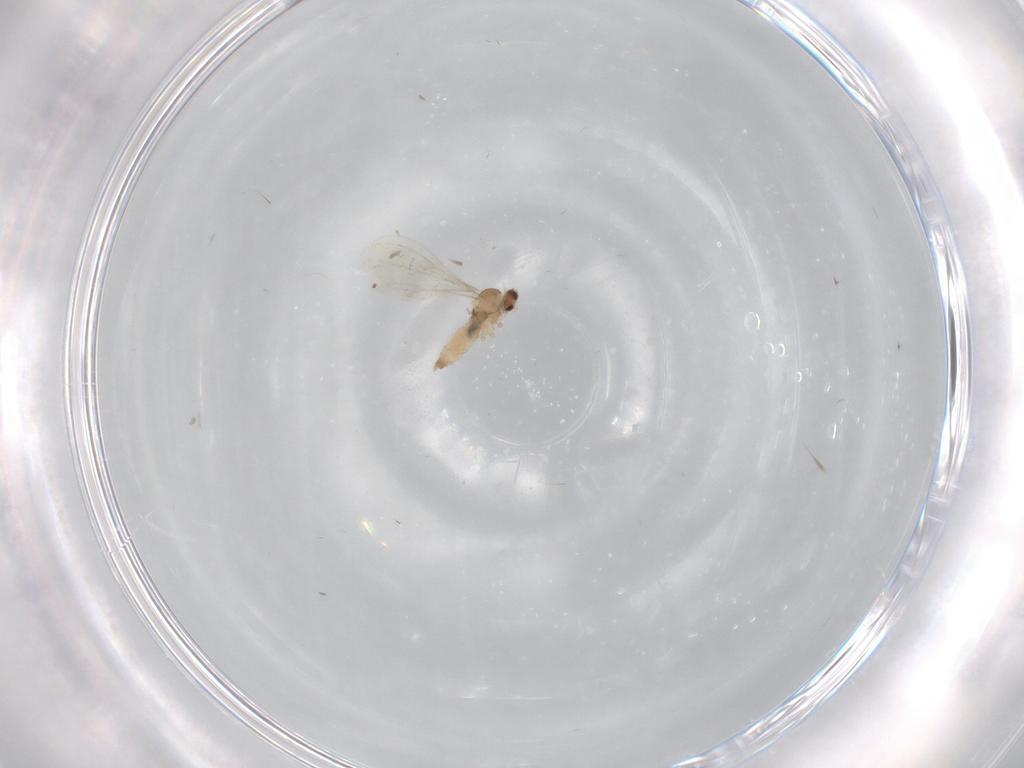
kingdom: Animalia
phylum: Arthropoda
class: Insecta
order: Diptera
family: Cecidomyiidae
